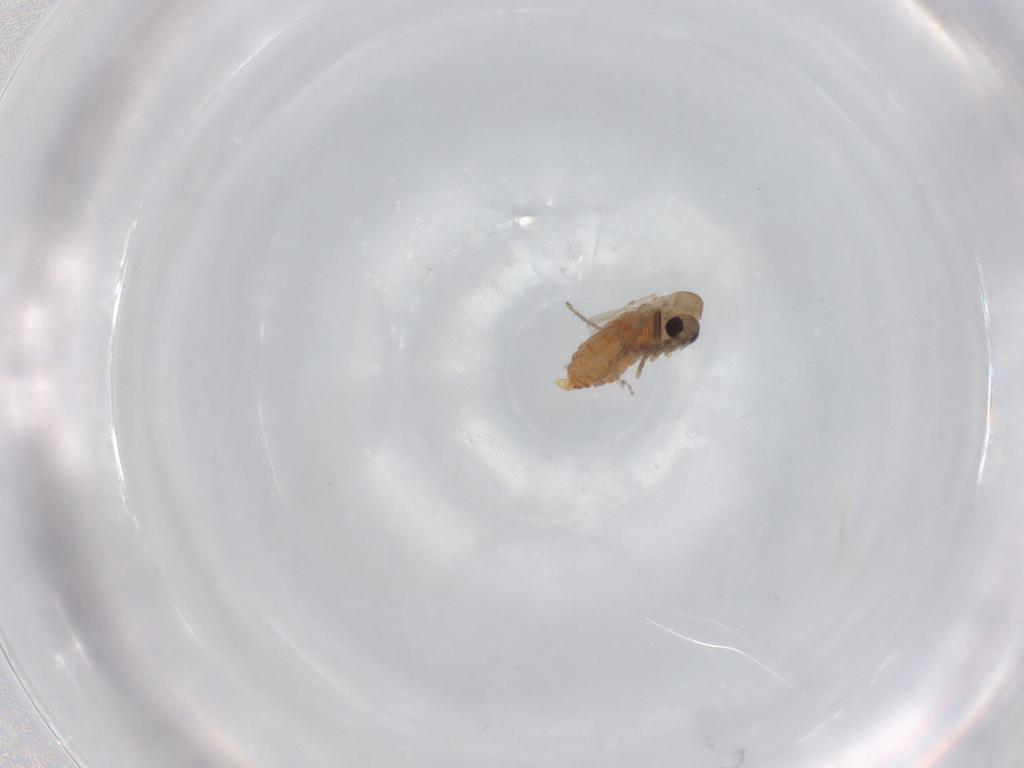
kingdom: Animalia
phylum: Arthropoda
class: Insecta
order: Diptera
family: Psychodidae
